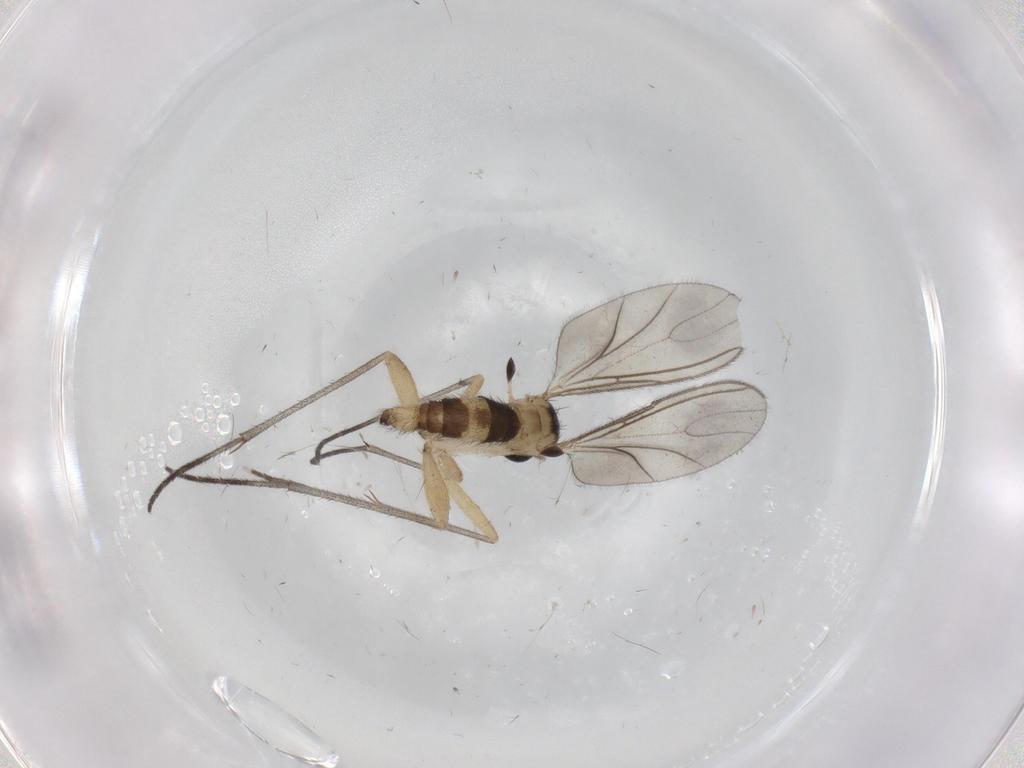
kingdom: Animalia
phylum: Arthropoda
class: Insecta
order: Diptera
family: Sciaridae
